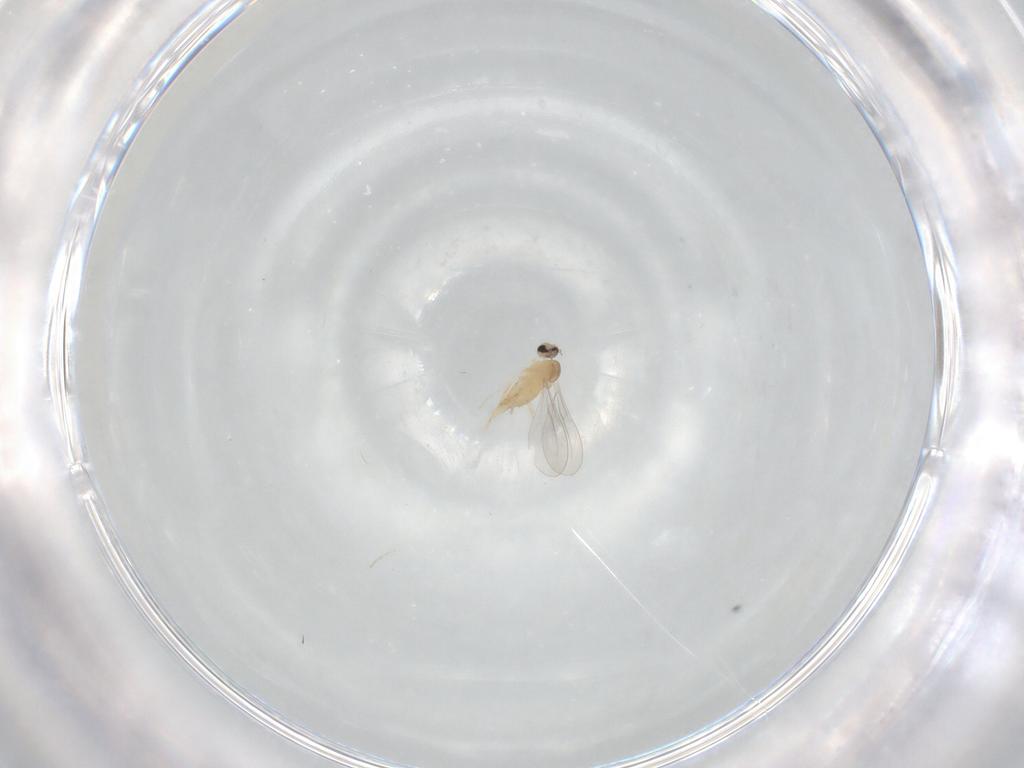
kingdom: Animalia
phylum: Arthropoda
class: Insecta
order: Diptera
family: Cecidomyiidae
